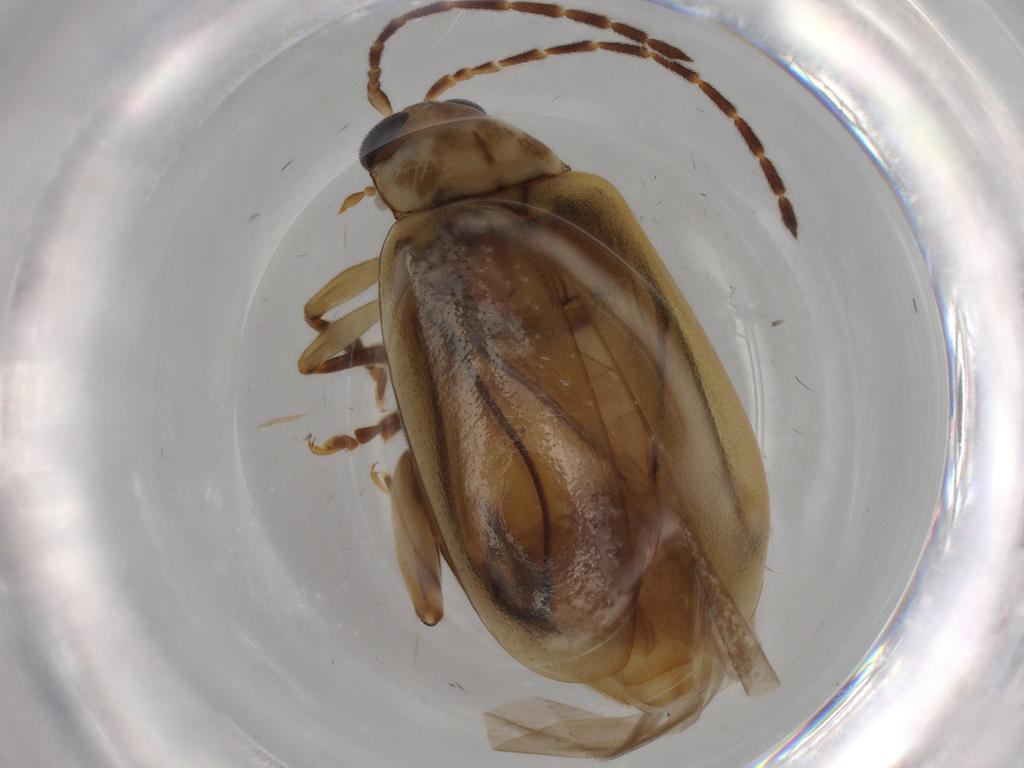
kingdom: Animalia
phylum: Arthropoda
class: Insecta
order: Coleoptera
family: Chrysomelidae
